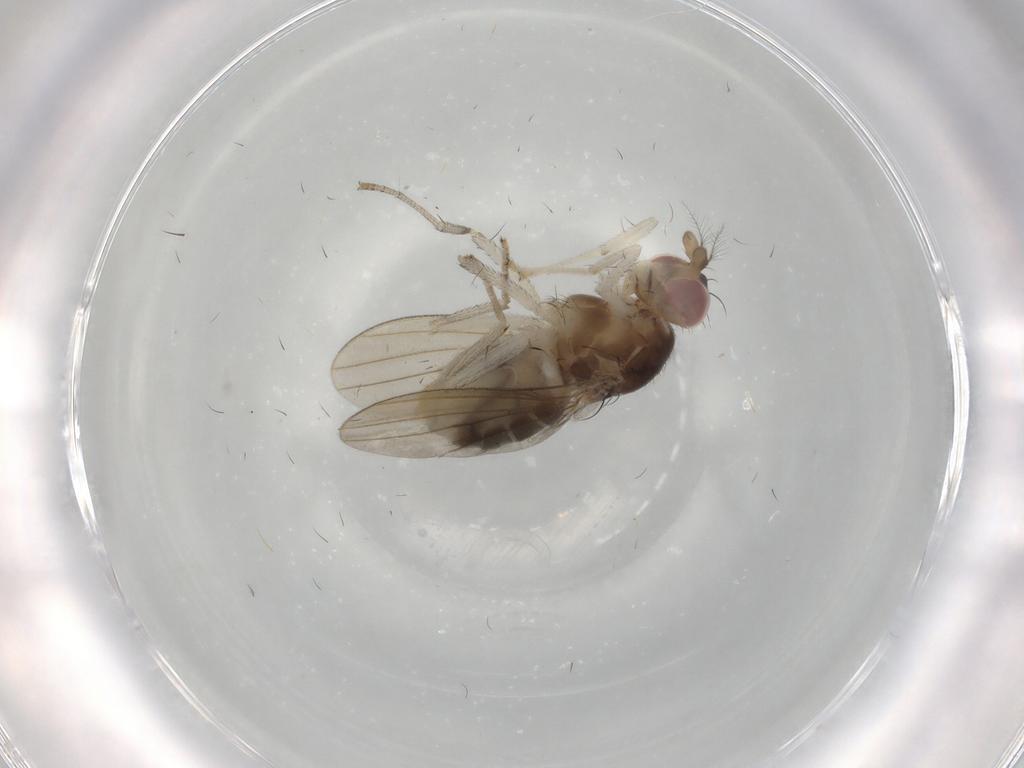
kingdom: Animalia
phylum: Arthropoda
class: Insecta
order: Diptera
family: Lauxaniidae
